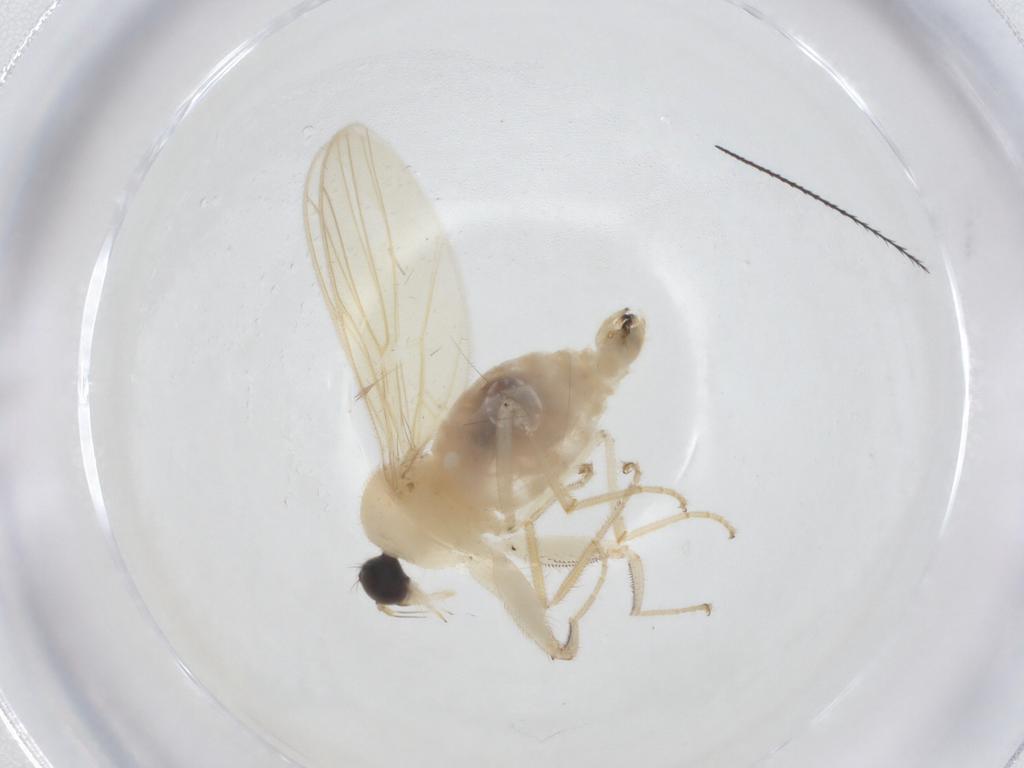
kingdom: Animalia
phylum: Arthropoda
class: Insecta
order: Diptera
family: Hybotidae
